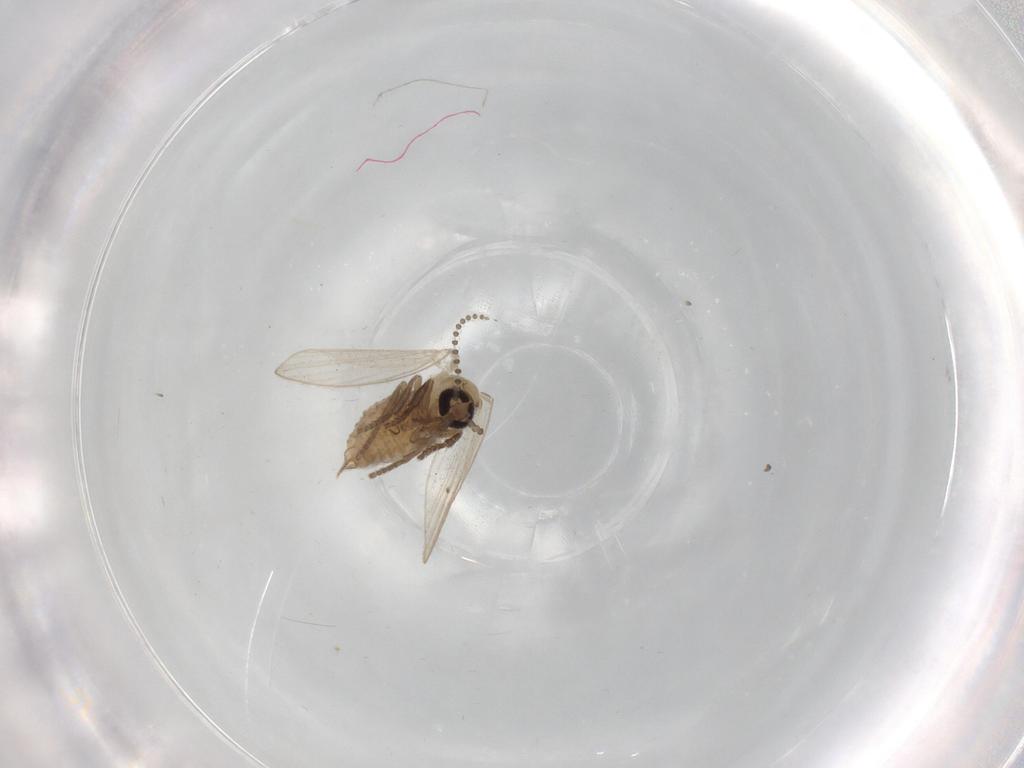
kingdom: Animalia
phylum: Arthropoda
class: Insecta
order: Diptera
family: Psychodidae
